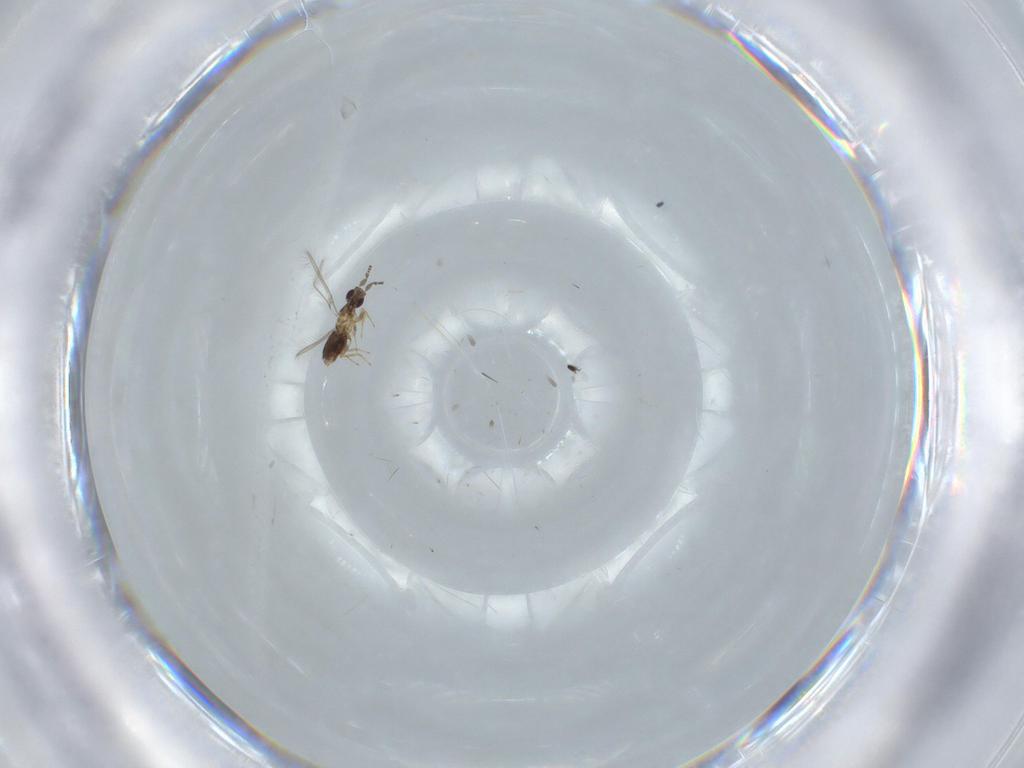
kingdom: Animalia
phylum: Arthropoda
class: Insecta
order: Hymenoptera
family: Mymaridae
